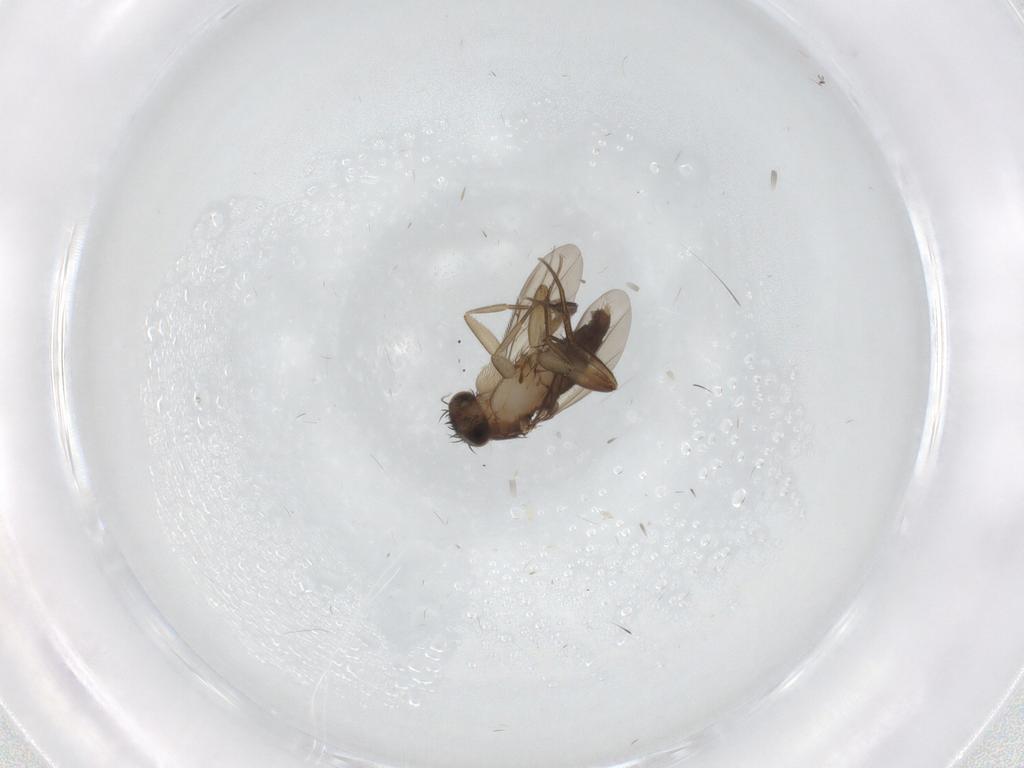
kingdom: Animalia
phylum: Arthropoda
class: Insecta
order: Diptera
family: Phoridae
